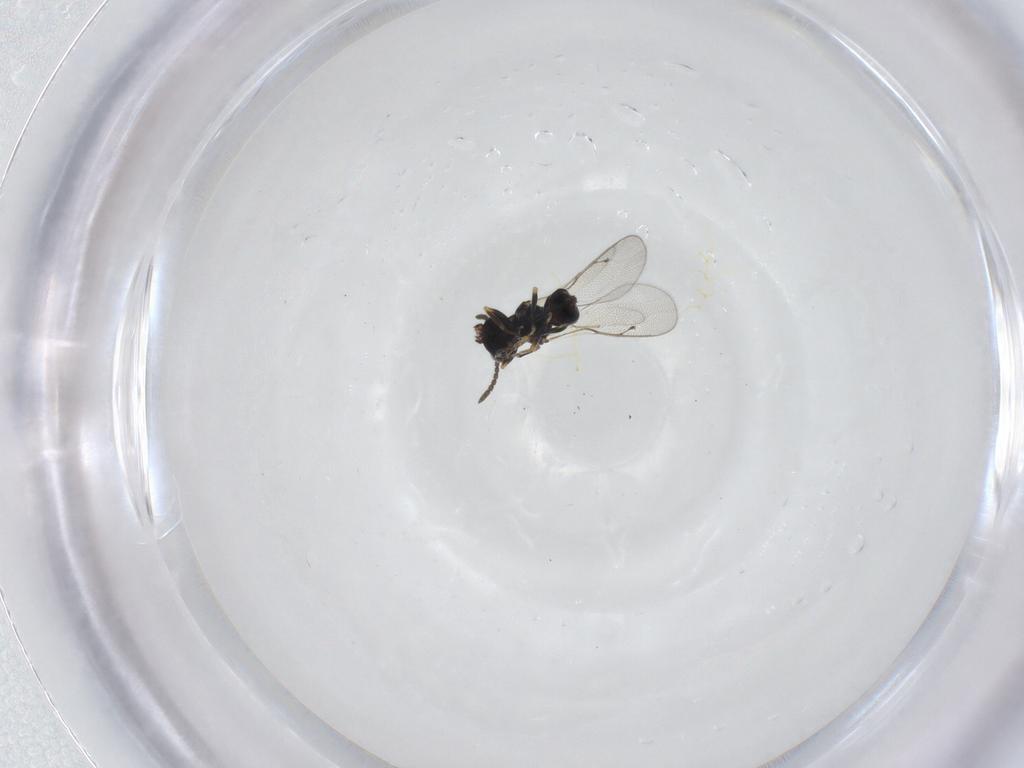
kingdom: Animalia
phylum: Arthropoda
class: Insecta
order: Hymenoptera
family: Pteromalidae
